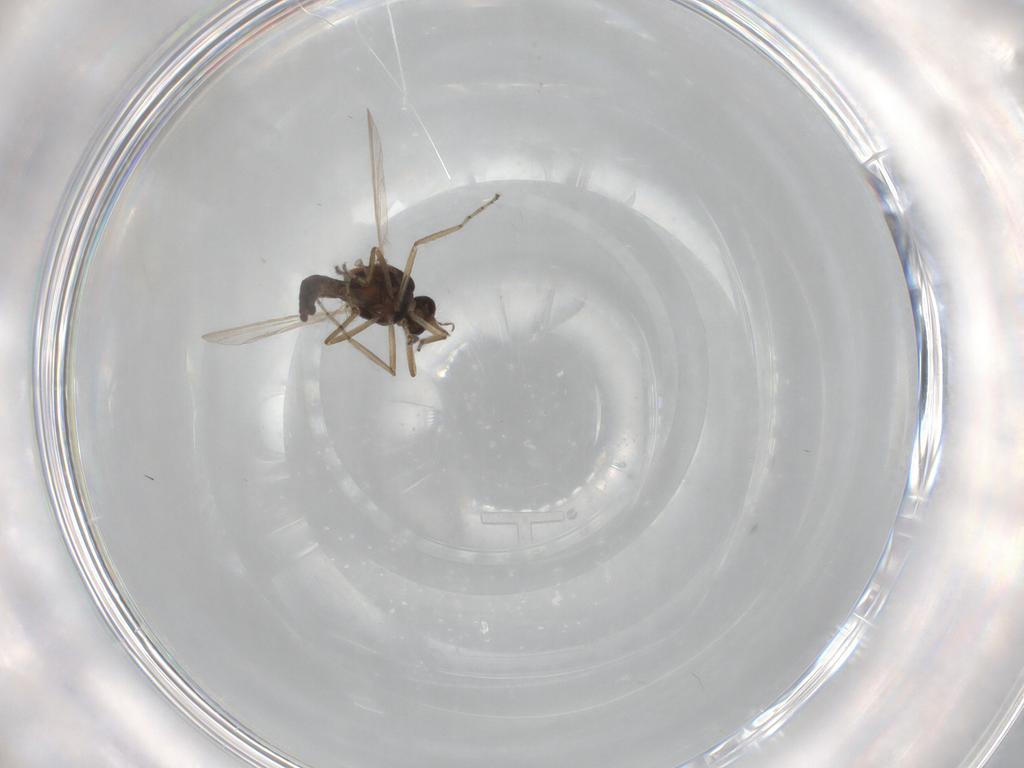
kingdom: Animalia
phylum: Arthropoda
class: Insecta
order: Diptera
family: Ceratopogonidae
